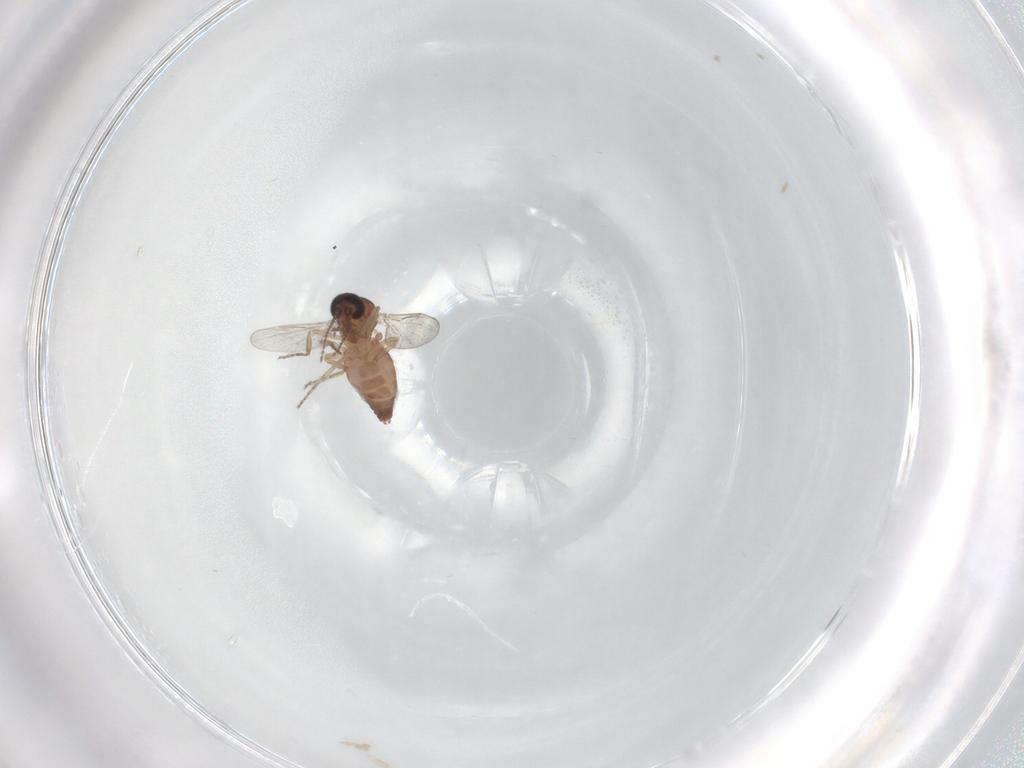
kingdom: Animalia
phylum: Arthropoda
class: Insecta
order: Diptera
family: Ceratopogonidae
